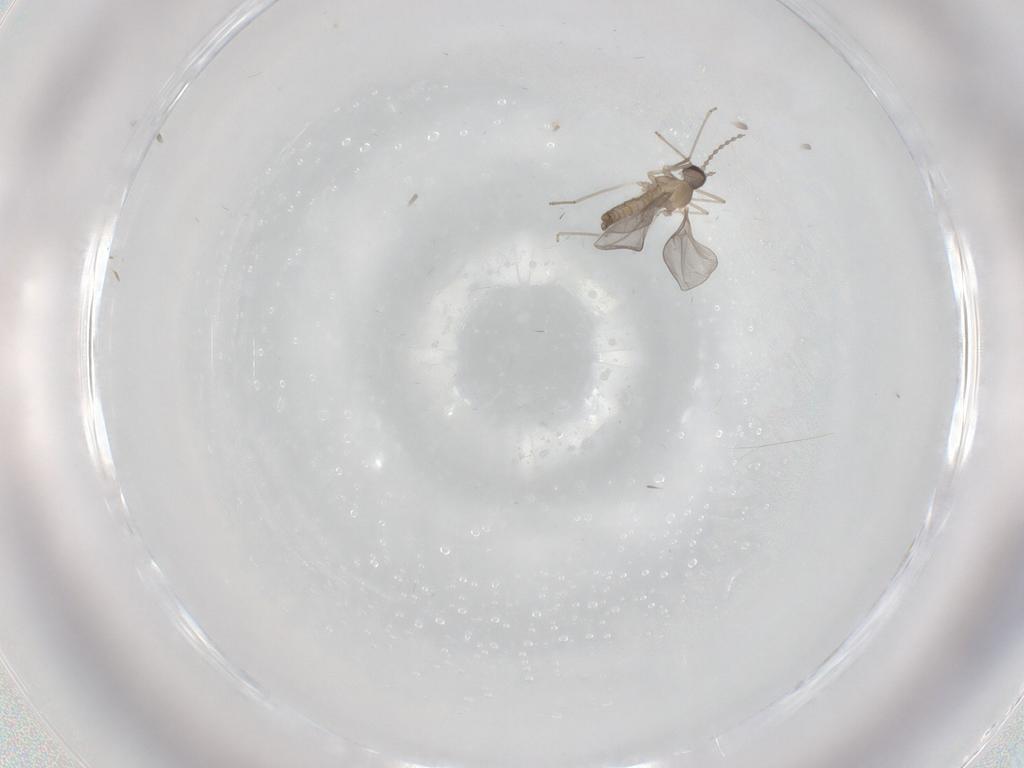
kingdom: Animalia
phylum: Arthropoda
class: Insecta
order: Diptera
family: Cecidomyiidae
